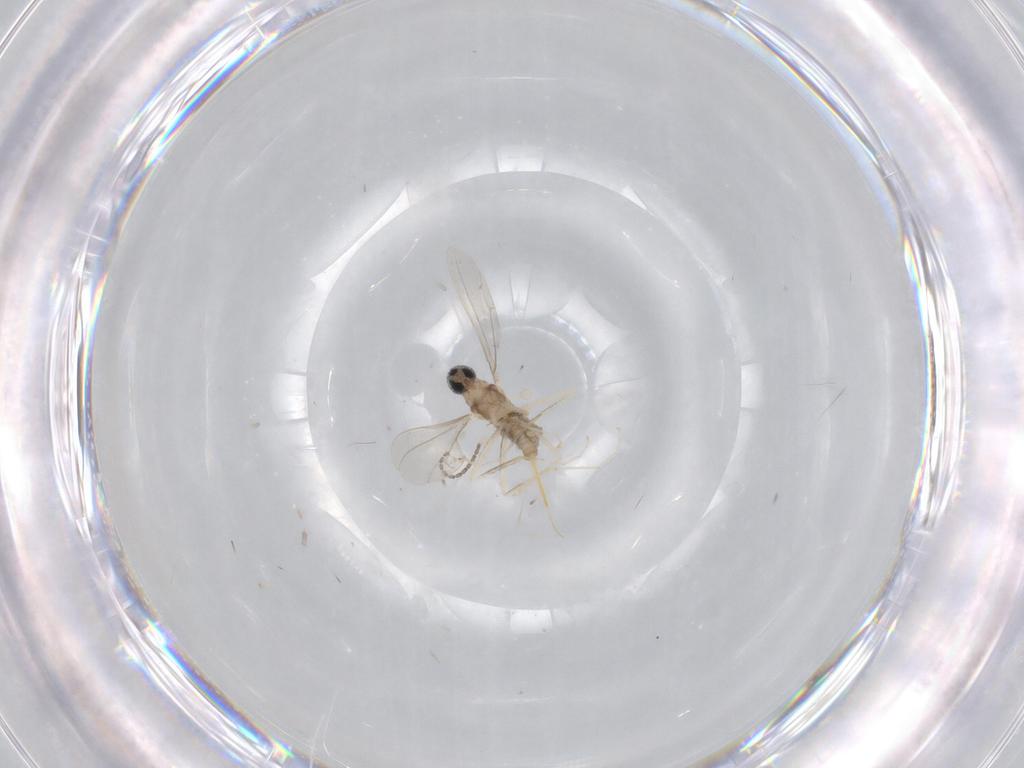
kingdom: Animalia
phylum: Arthropoda
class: Insecta
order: Diptera
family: Cecidomyiidae
